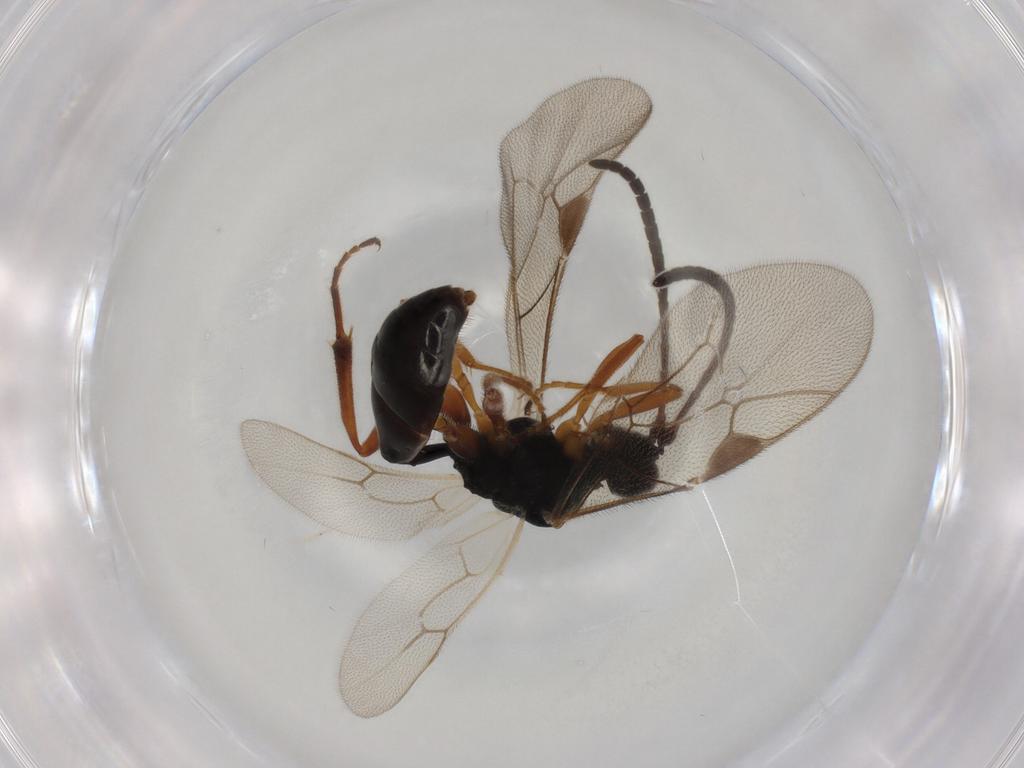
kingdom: Animalia
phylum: Arthropoda
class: Insecta
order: Hymenoptera
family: Ichneumonidae
